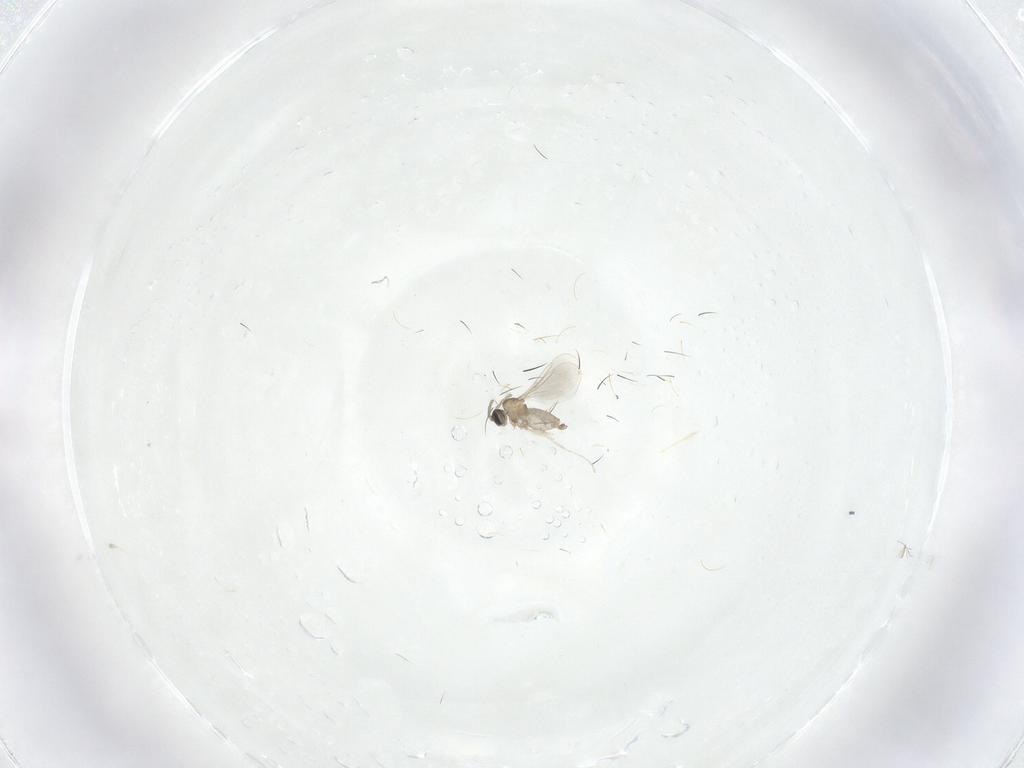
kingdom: Animalia
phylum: Arthropoda
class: Insecta
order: Diptera
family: Chironomidae
